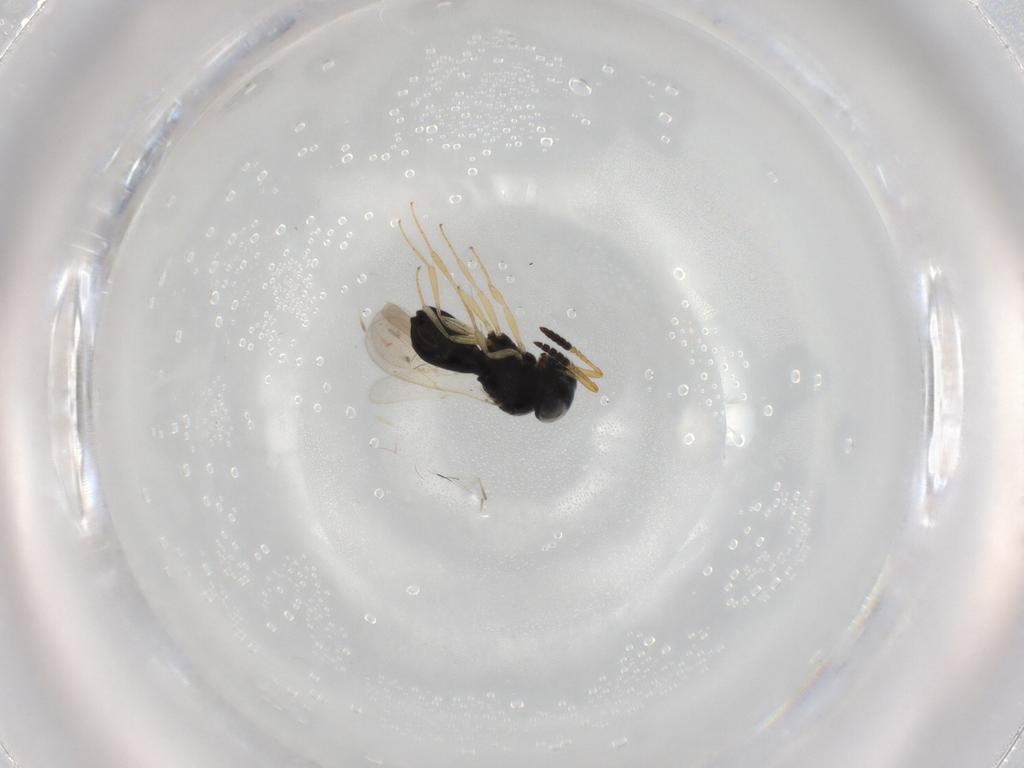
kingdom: Animalia
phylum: Arthropoda
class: Insecta
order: Hymenoptera
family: Scelionidae
